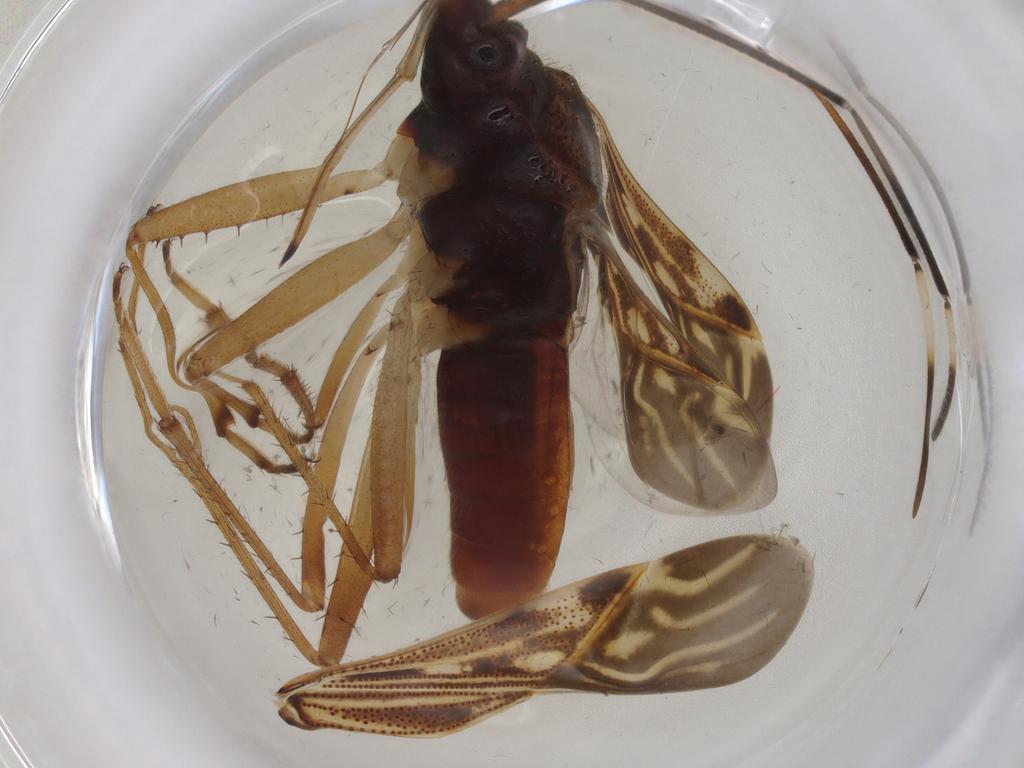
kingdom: Animalia
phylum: Arthropoda
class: Insecta
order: Hemiptera
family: Rhyparochromidae
